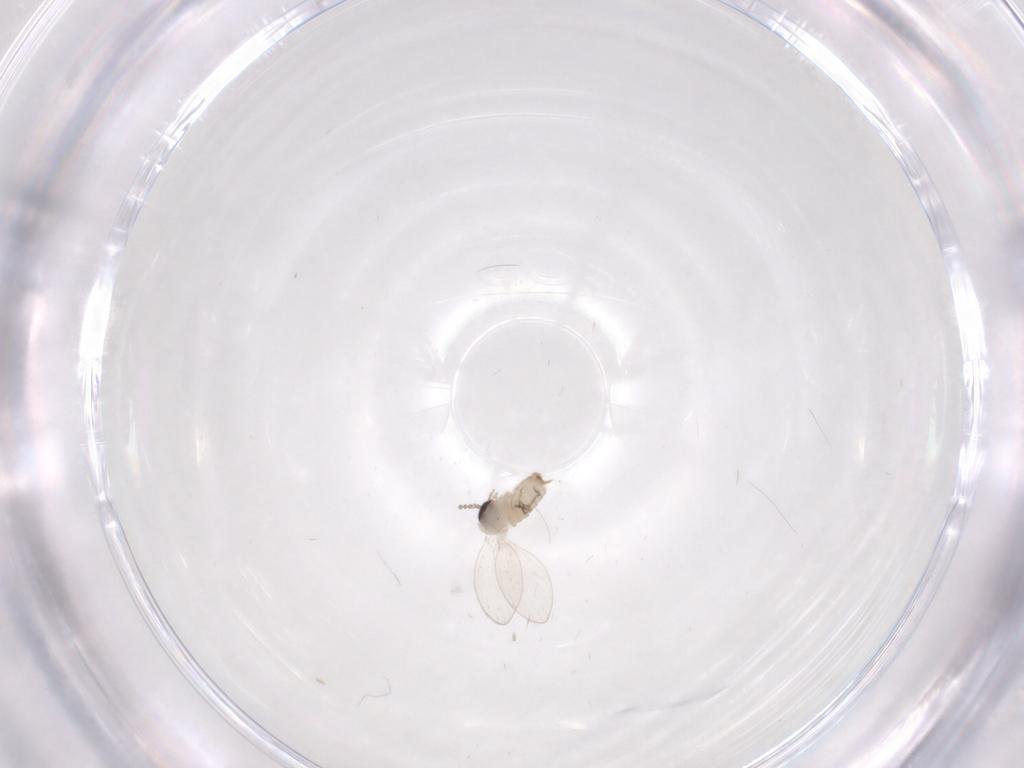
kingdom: Animalia
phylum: Arthropoda
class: Insecta
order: Diptera
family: Psychodidae
